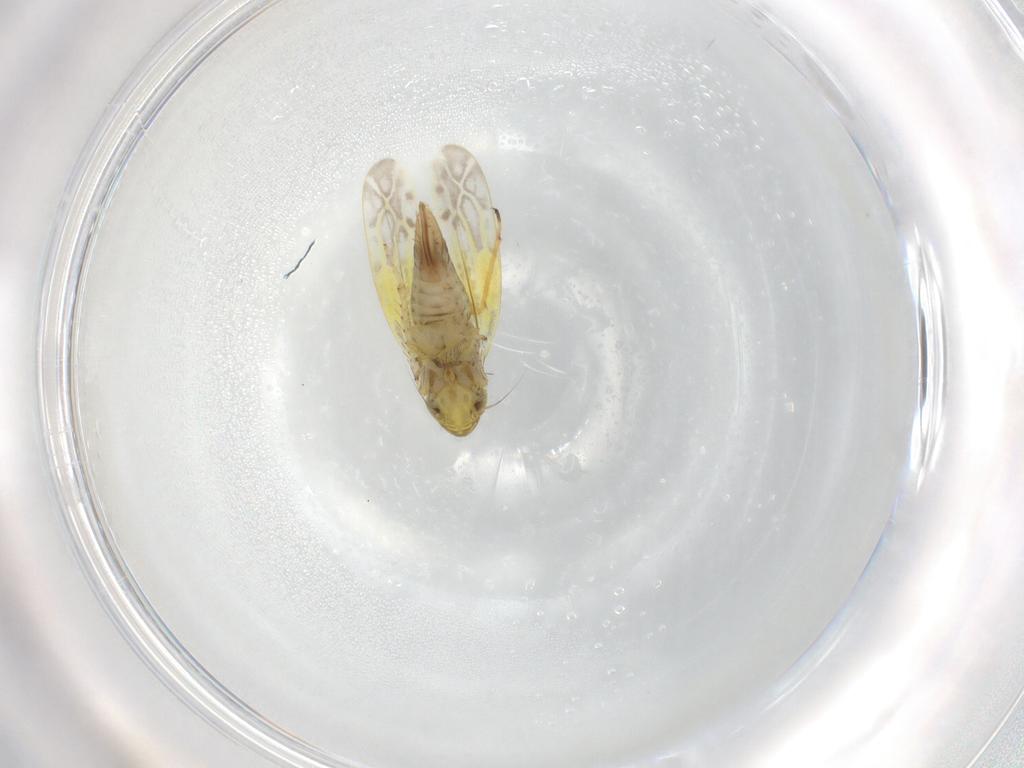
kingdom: Animalia
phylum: Arthropoda
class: Insecta
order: Hemiptera
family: Cicadellidae
